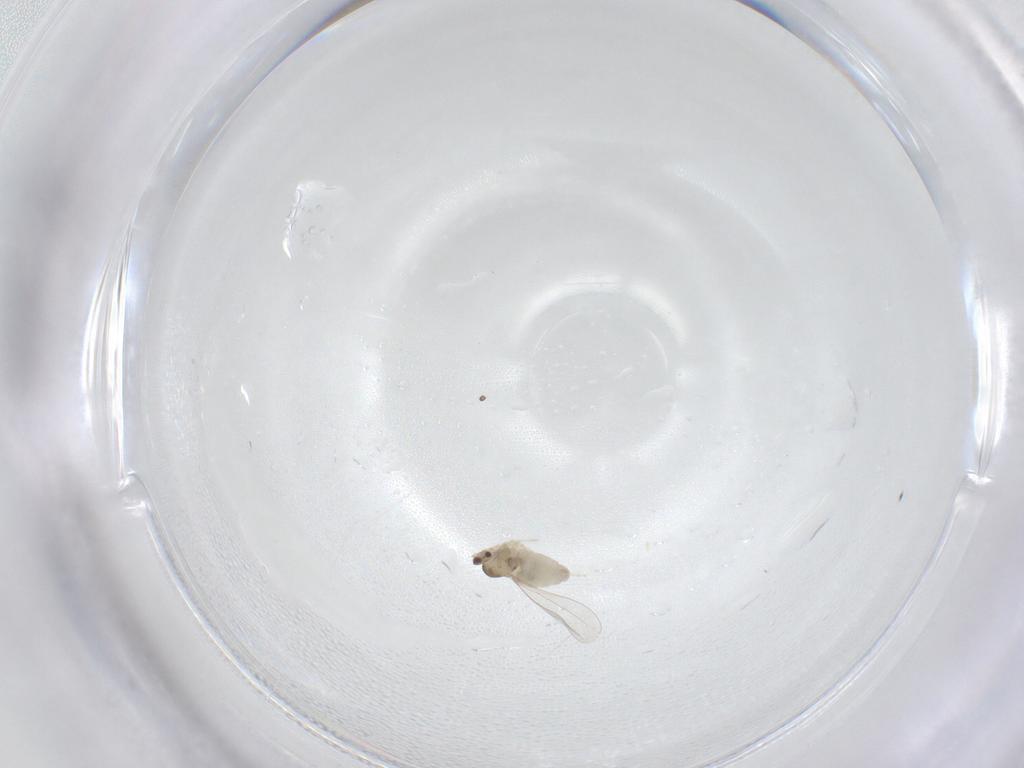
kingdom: Animalia
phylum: Arthropoda
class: Insecta
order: Diptera
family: Cecidomyiidae
